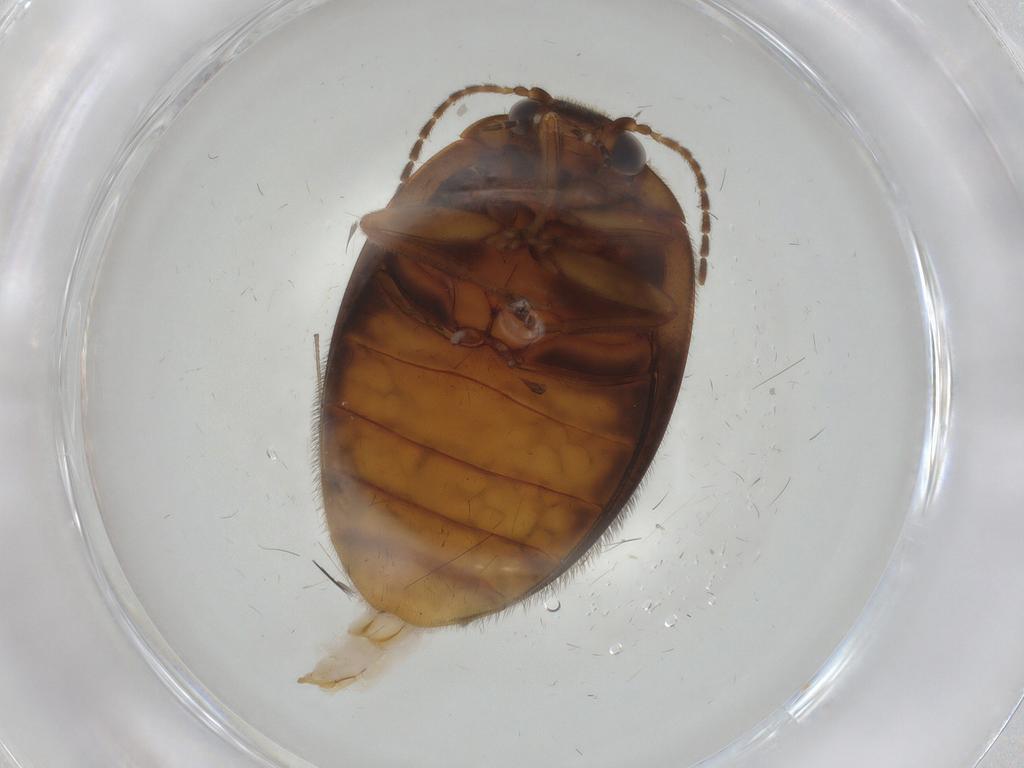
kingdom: Animalia
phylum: Arthropoda
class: Insecta
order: Coleoptera
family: Scirtidae
